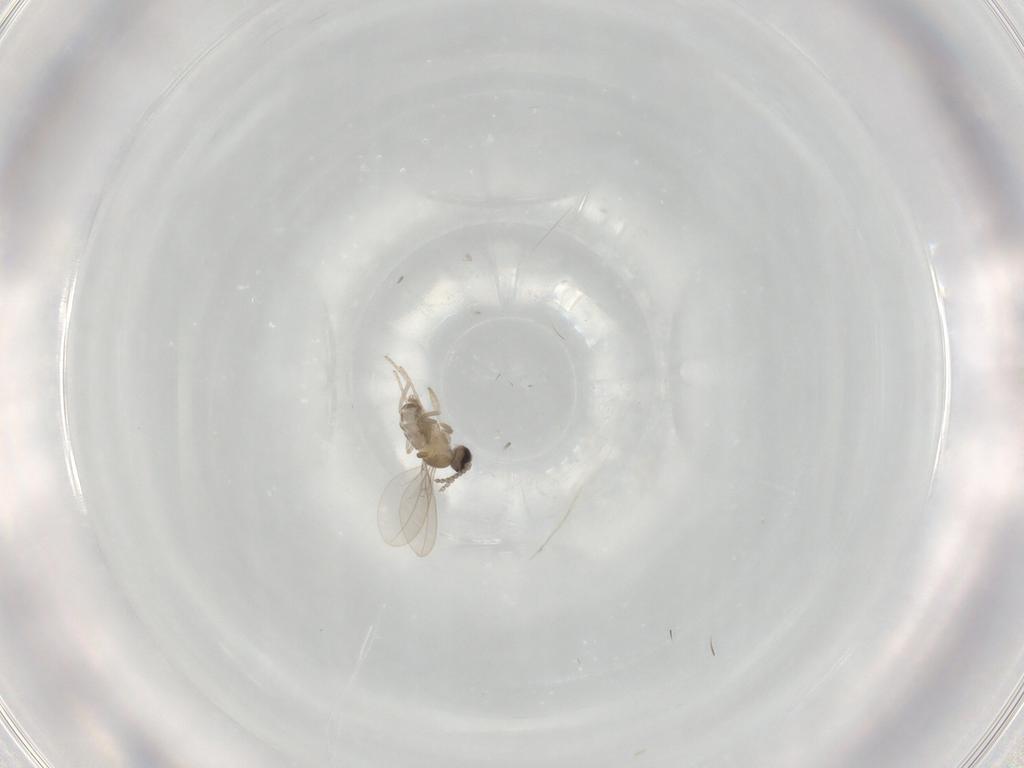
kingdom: Animalia
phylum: Arthropoda
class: Insecta
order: Diptera
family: Cecidomyiidae
